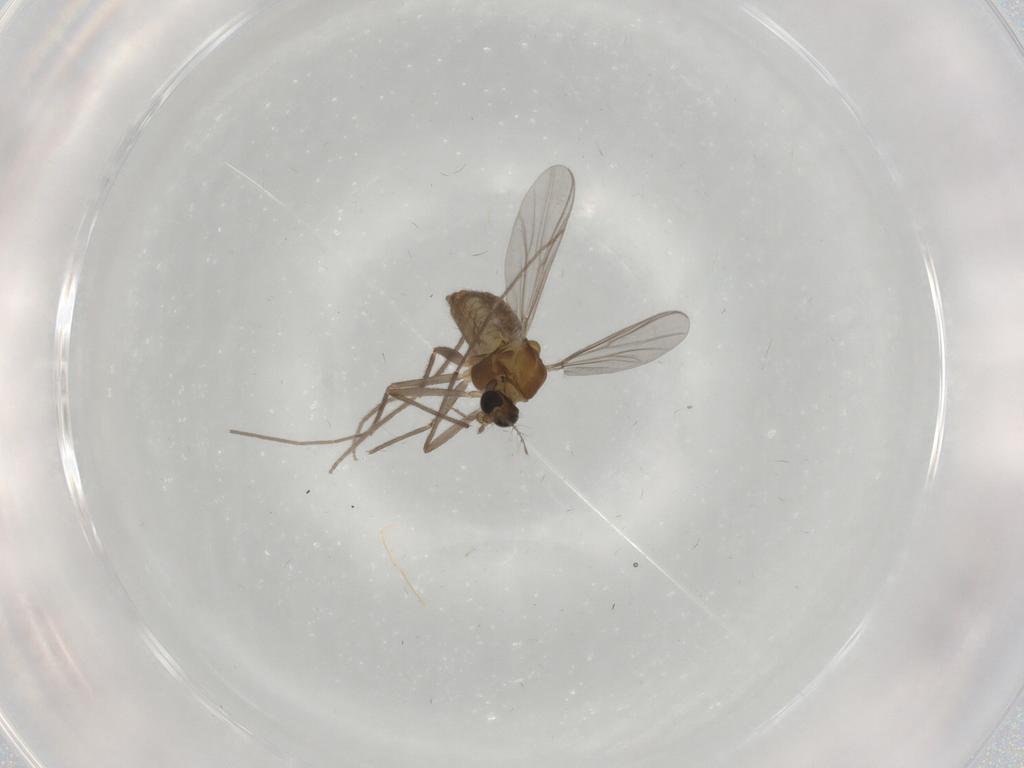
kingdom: Animalia
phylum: Arthropoda
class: Insecta
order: Diptera
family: Chironomidae
